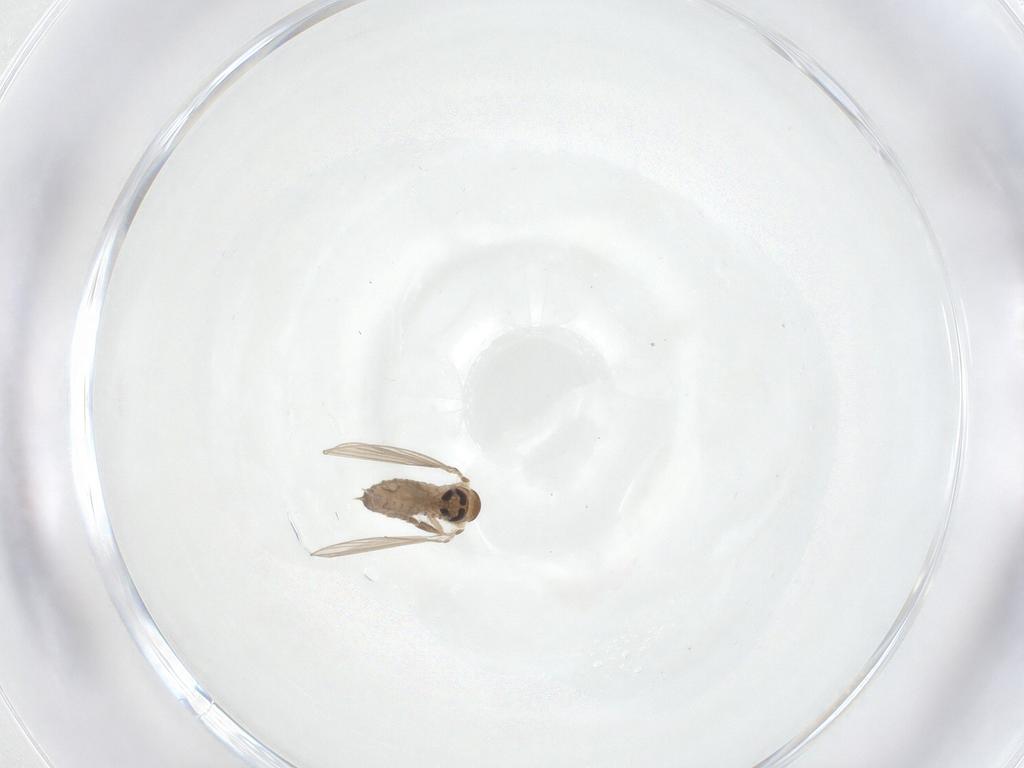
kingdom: Animalia
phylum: Arthropoda
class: Insecta
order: Diptera
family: Psychodidae
